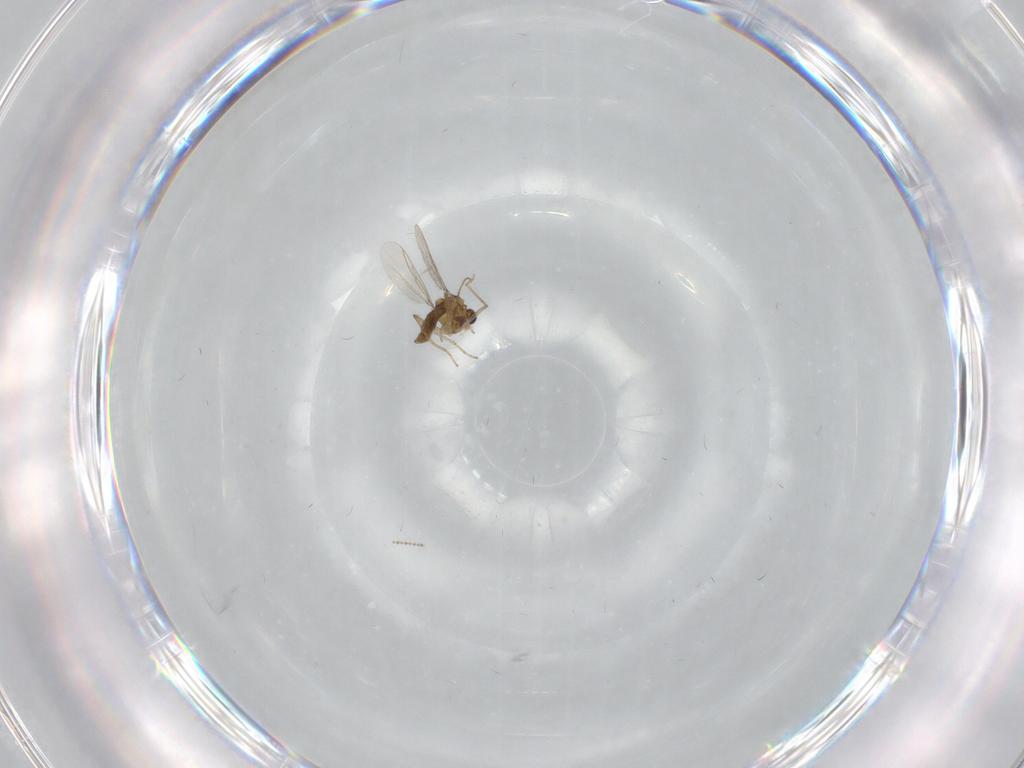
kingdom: Animalia
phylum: Arthropoda
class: Insecta
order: Diptera
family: Chironomidae
